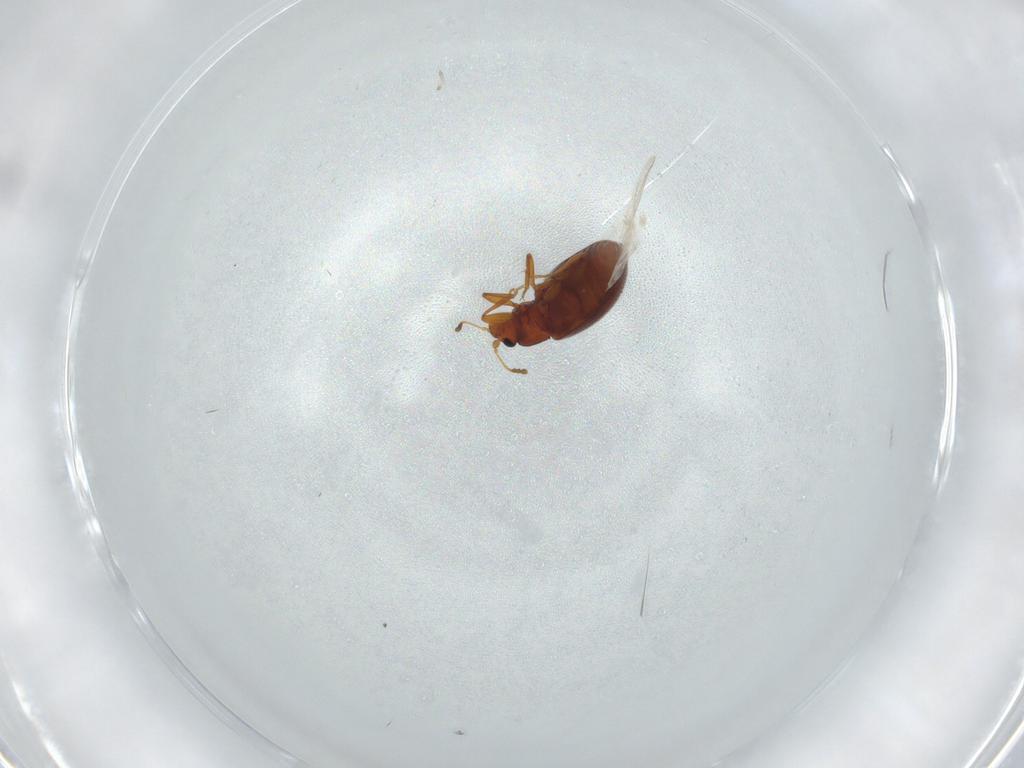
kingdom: Animalia
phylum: Arthropoda
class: Insecta
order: Coleoptera
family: Latridiidae
